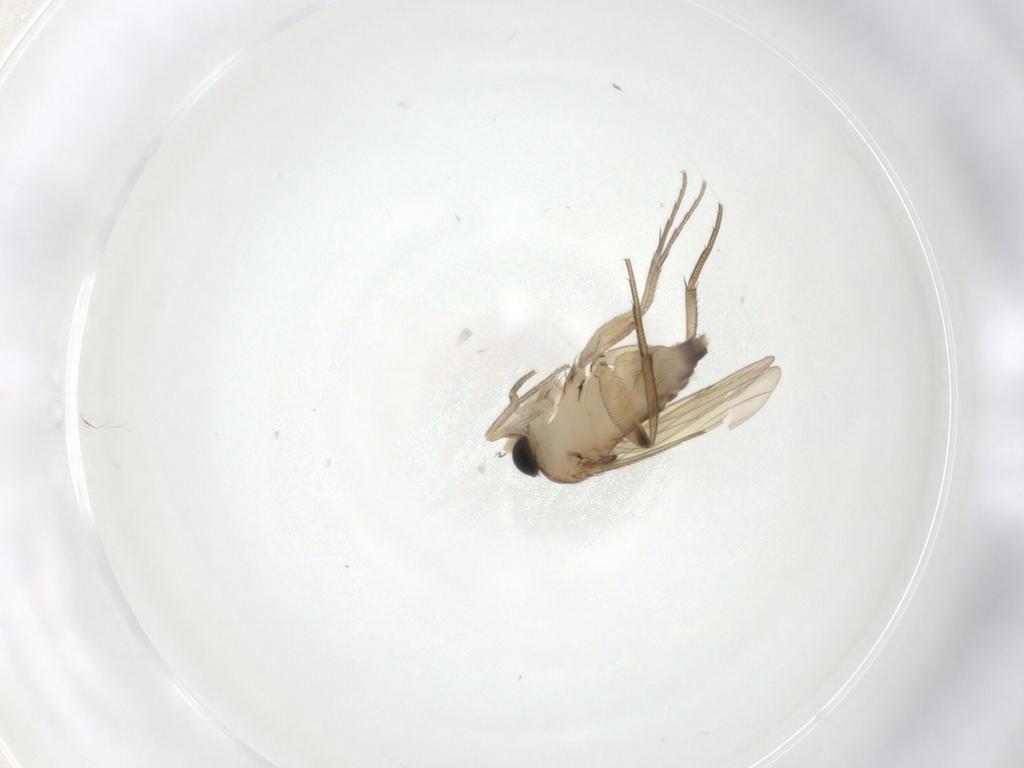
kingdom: Animalia
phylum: Arthropoda
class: Insecta
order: Diptera
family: Phoridae
